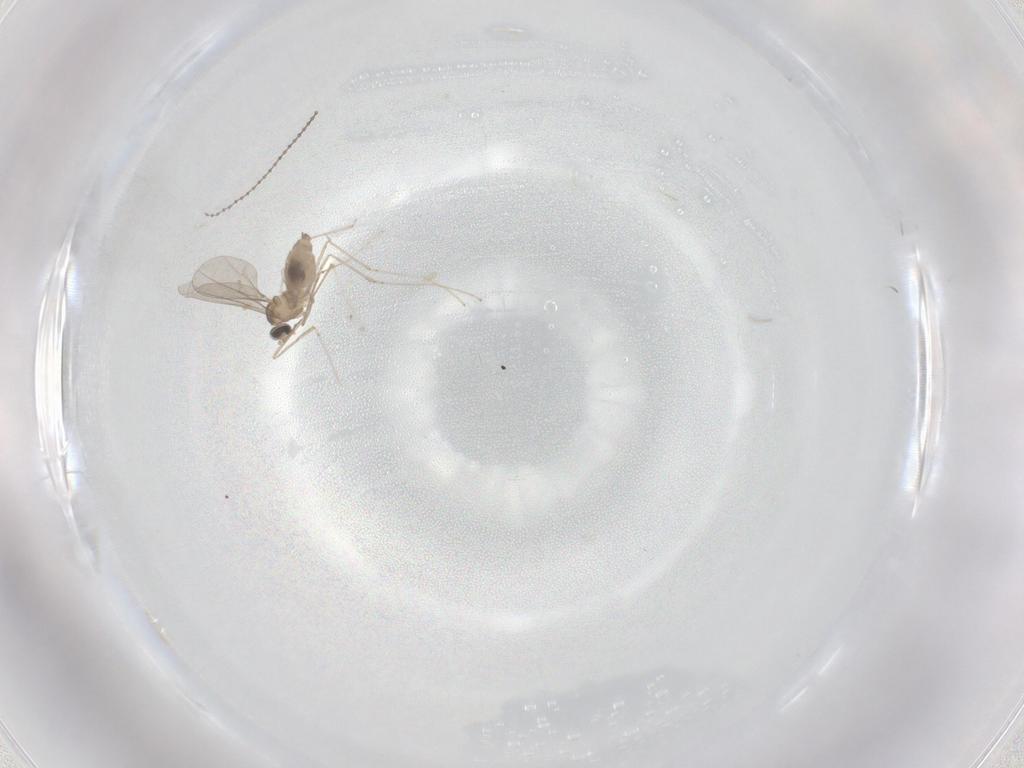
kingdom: Animalia
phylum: Arthropoda
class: Insecta
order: Diptera
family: Cecidomyiidae
